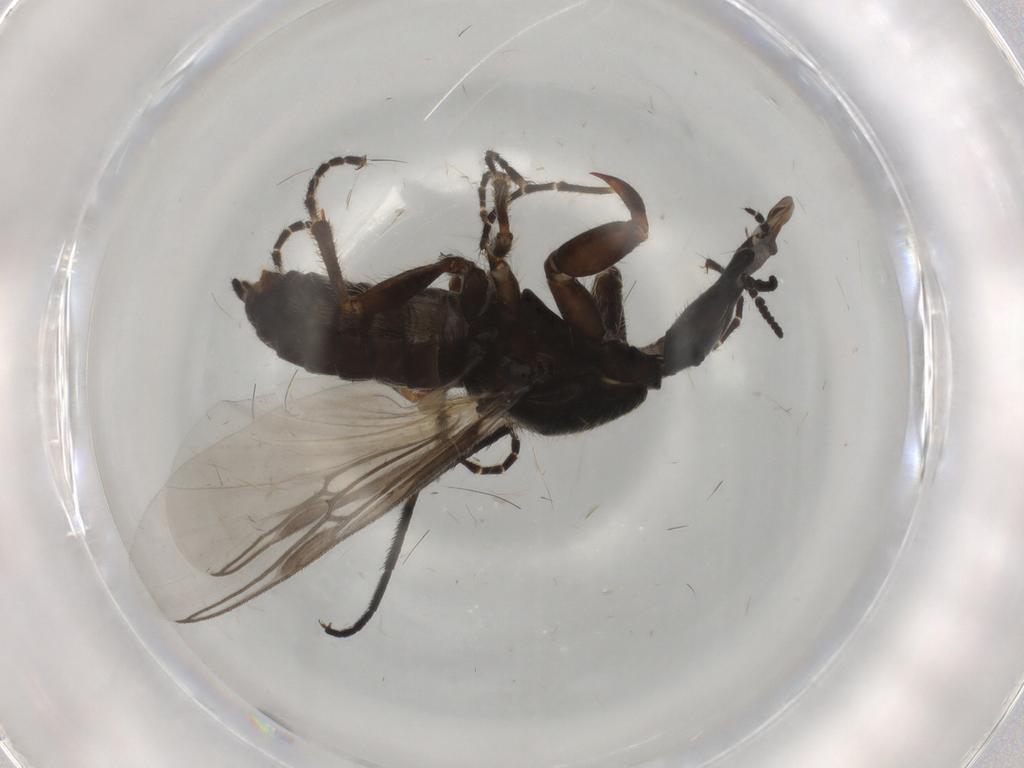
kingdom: Animalia
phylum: Arthropoda
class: Insecta
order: Diptera
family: Bibionidae
